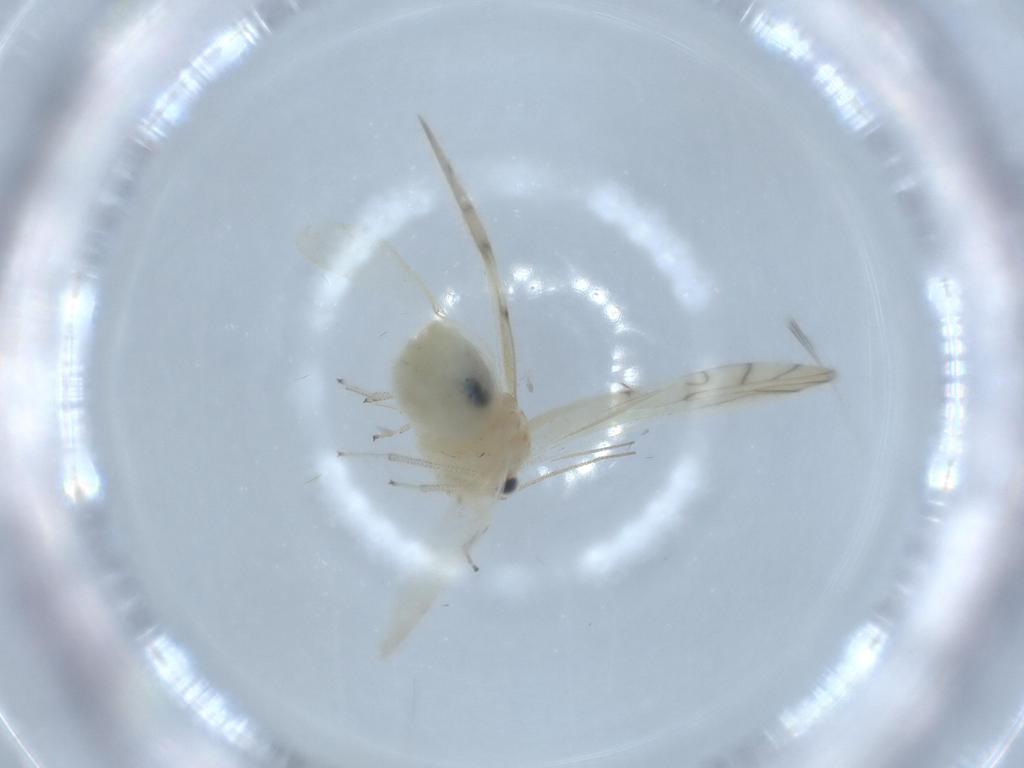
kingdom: Animalia
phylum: Arthropoda
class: Insecta
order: Psocodea
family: Caeciliusidae
